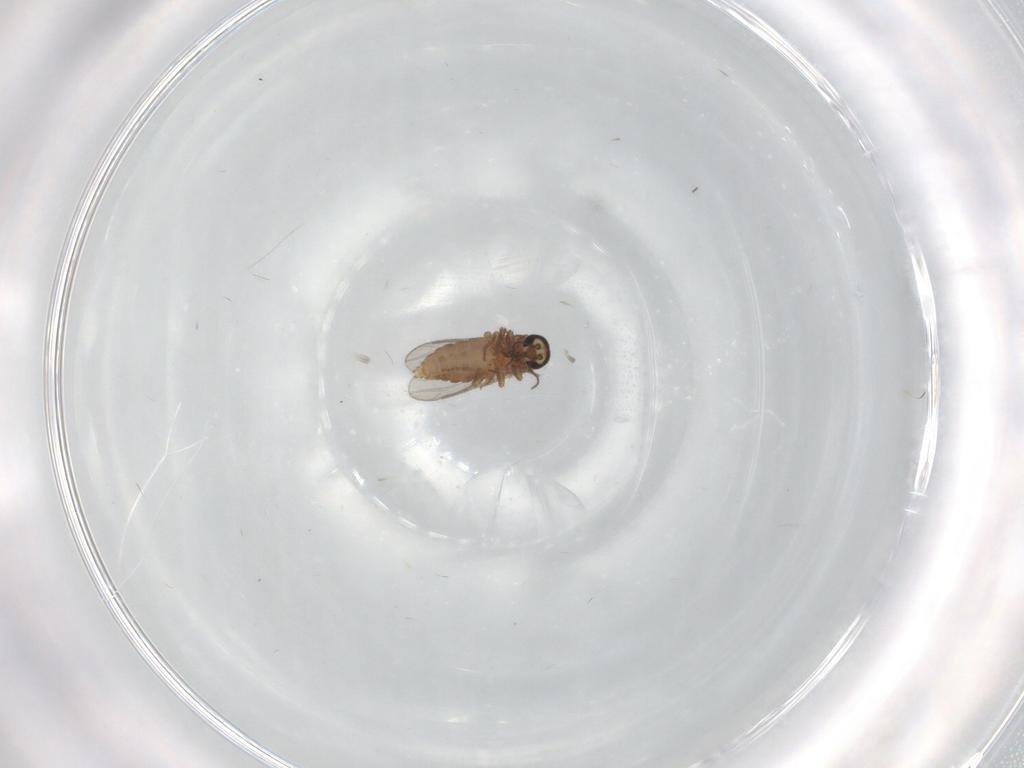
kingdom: Animalia
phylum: Arthropoda
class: Insecta
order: Diptera
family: Ceratopogonidae
